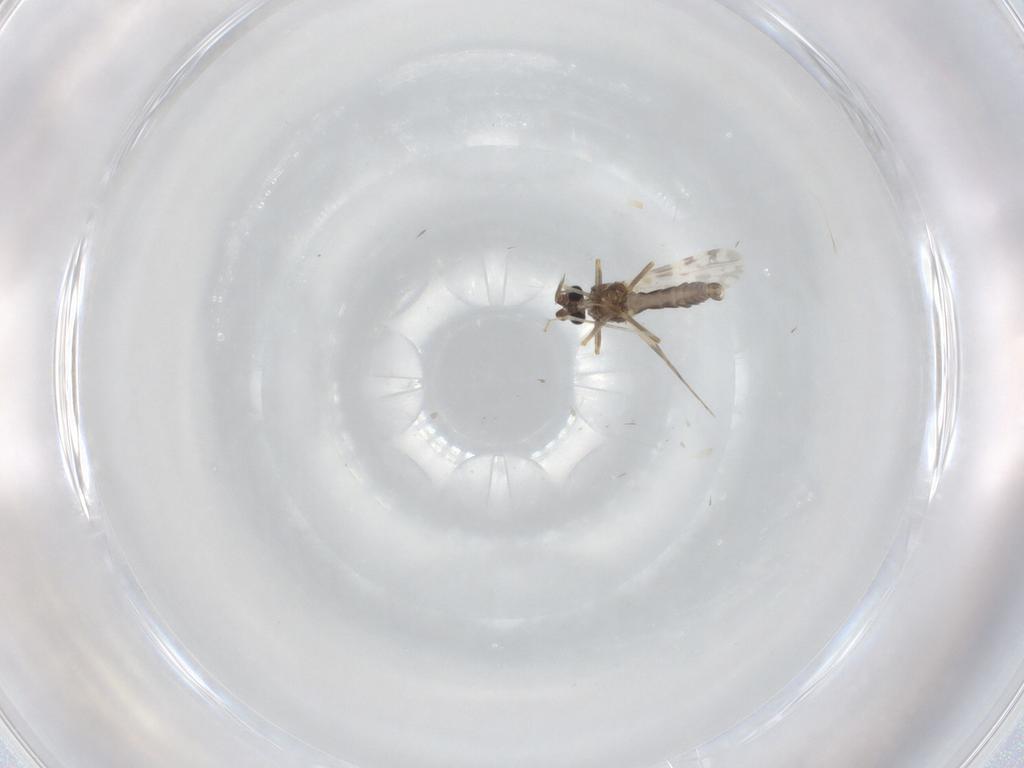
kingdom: Animalia
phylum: Arthropoda
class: Insecta
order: Diptera
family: Ceratopogonidae
